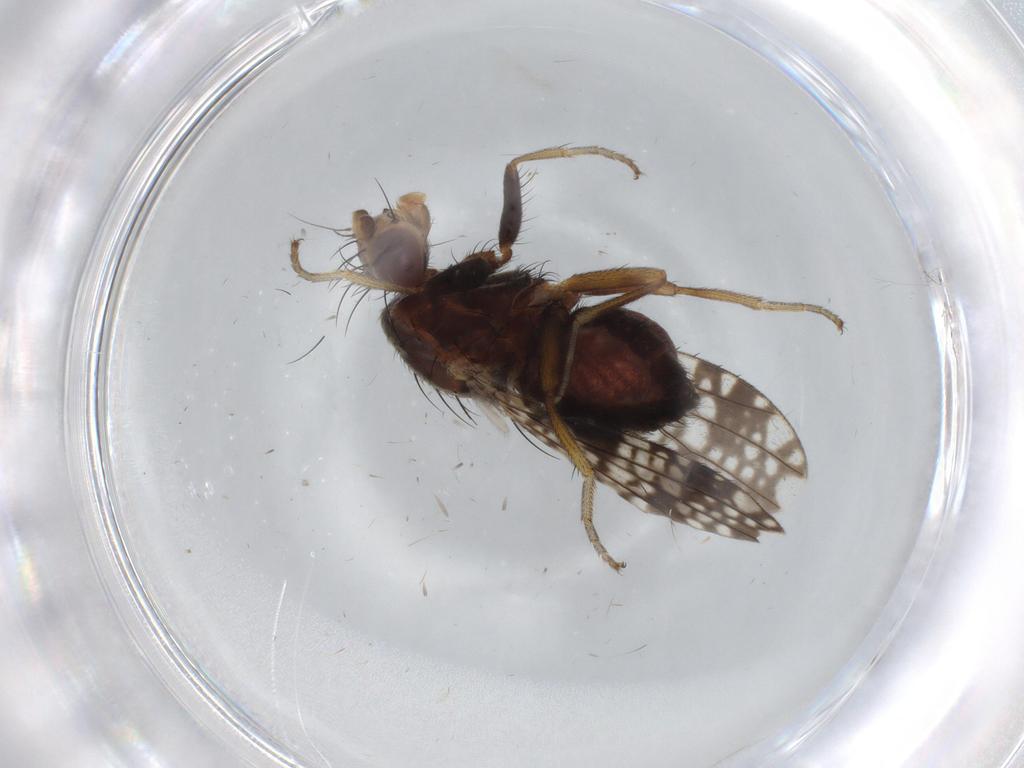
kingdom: Animalia
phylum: Arthropoda
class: Insecta
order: Diptera
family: Tephritidae
